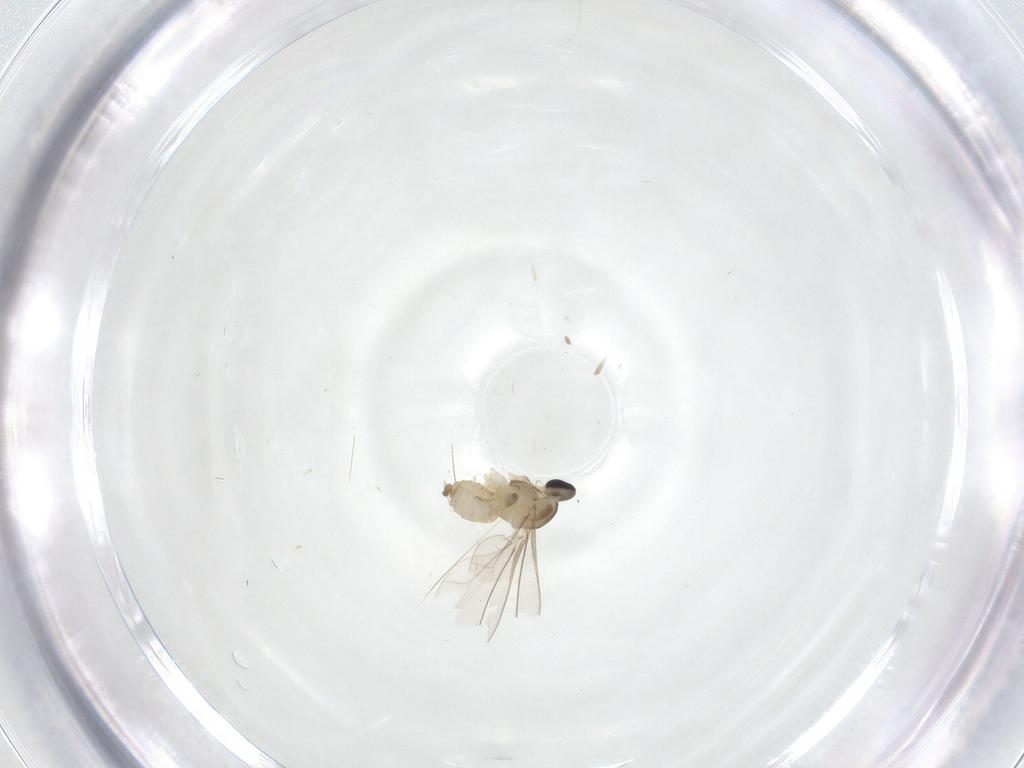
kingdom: Animalia
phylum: Arthropoda
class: Insecta
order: Diptera
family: Cecidomyiidae
